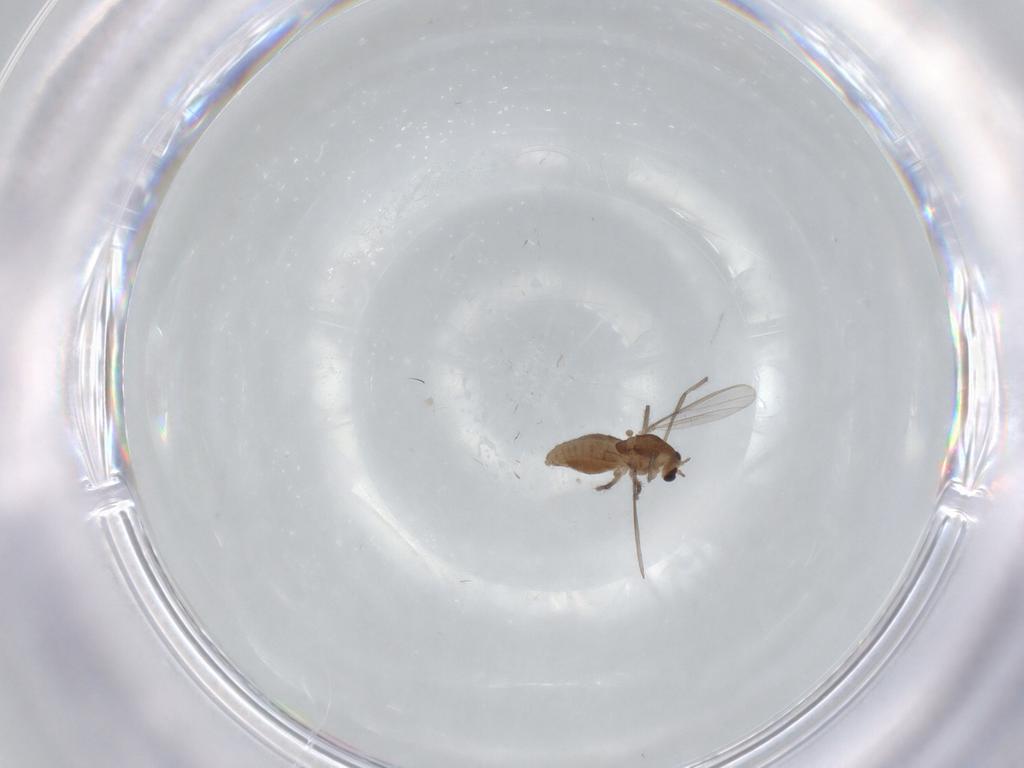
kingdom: Animalia
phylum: Arthropoda
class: Insecta
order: Diptera
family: Chironomidae
